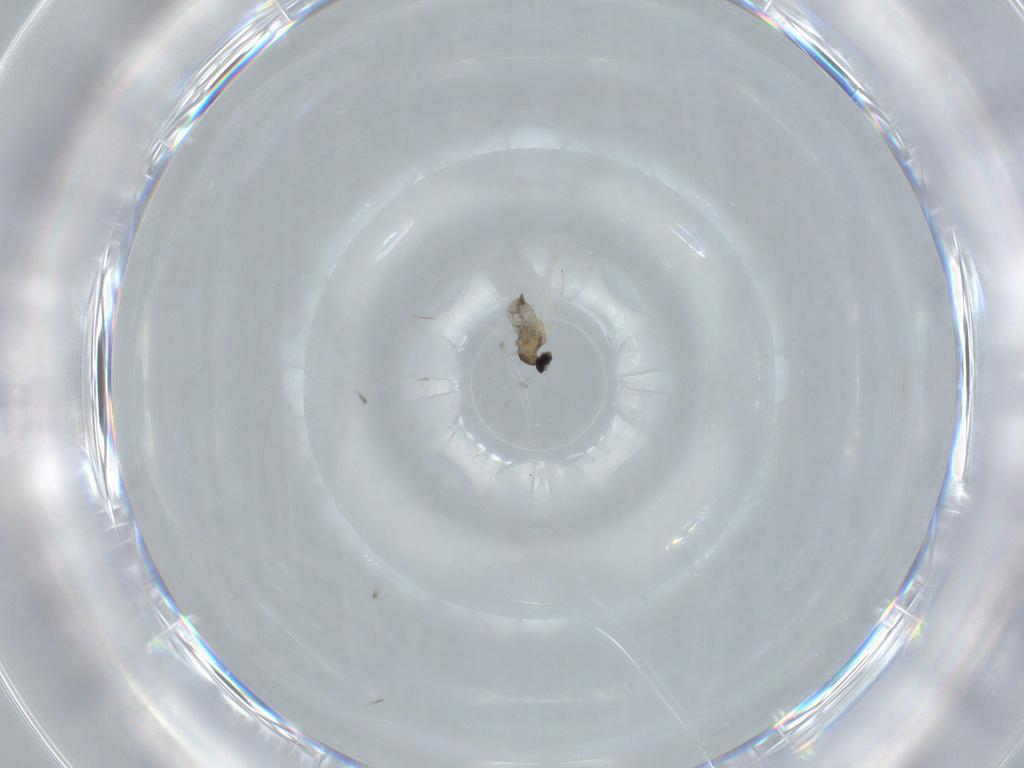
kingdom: Animalia
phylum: Arthropoda
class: Insecta
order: Diptera
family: Cecidomyiidae
